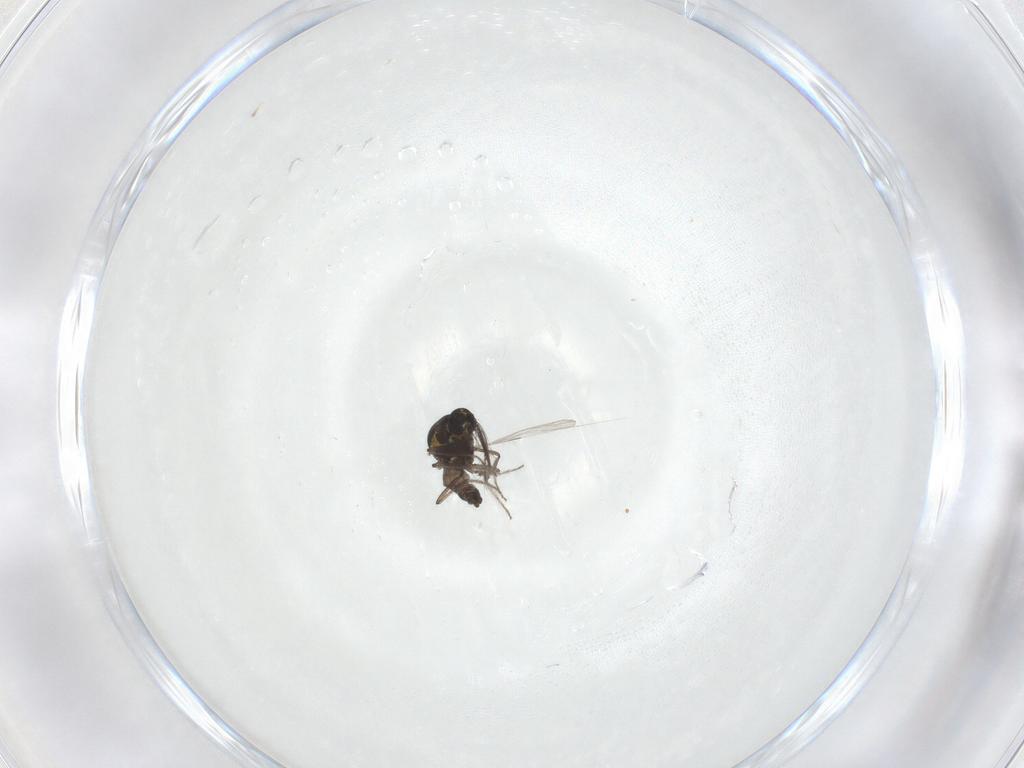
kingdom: Animalia
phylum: Arthropoda
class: Insecta
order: Diptera
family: Ceratopogonidae
